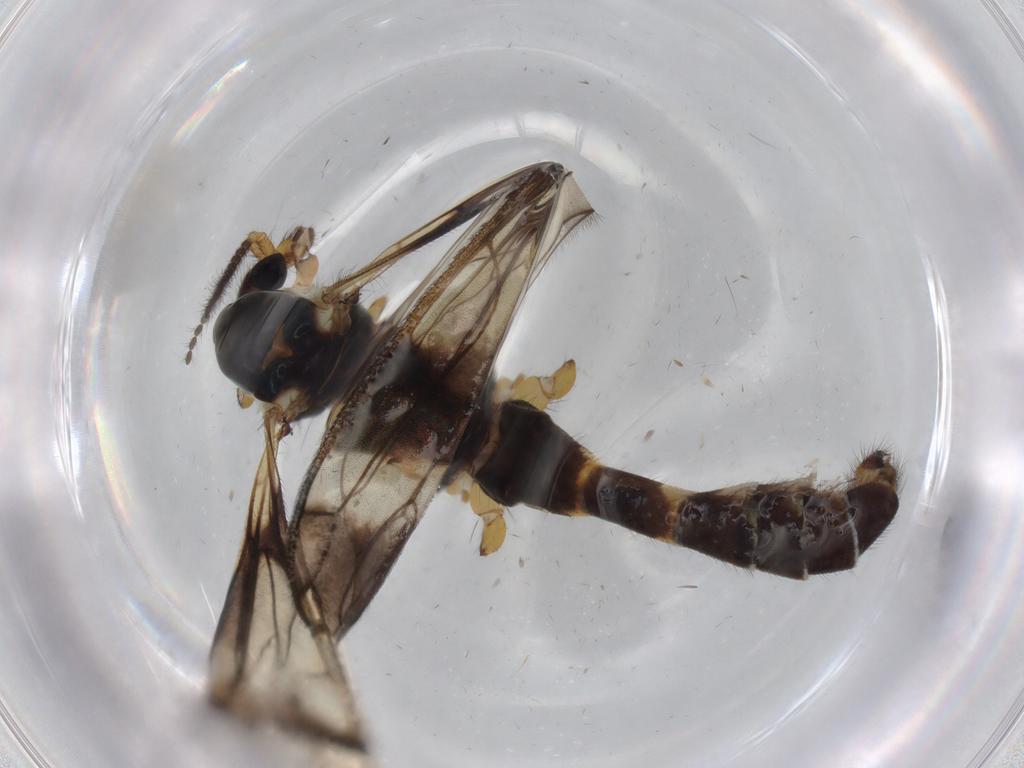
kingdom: Animalia
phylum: Arthropoda
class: Insecta
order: Diptera
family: Limoniidae
